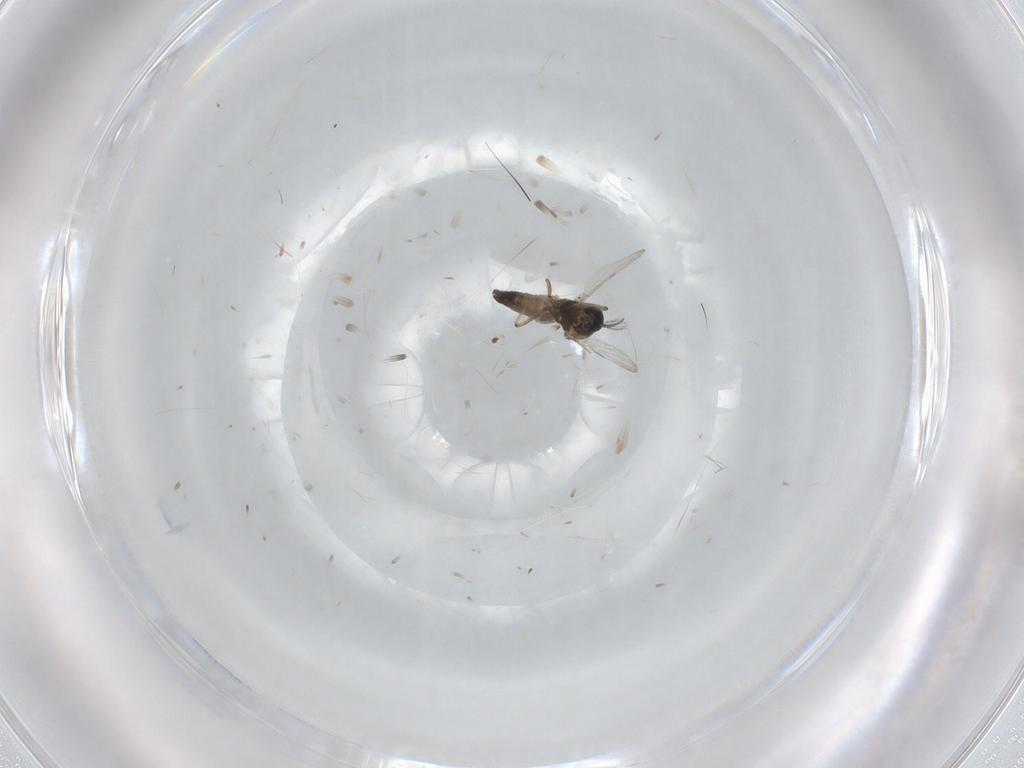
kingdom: Animalia
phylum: Arthropoda
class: Insecta
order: Diptera
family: Ceratopogonidae
